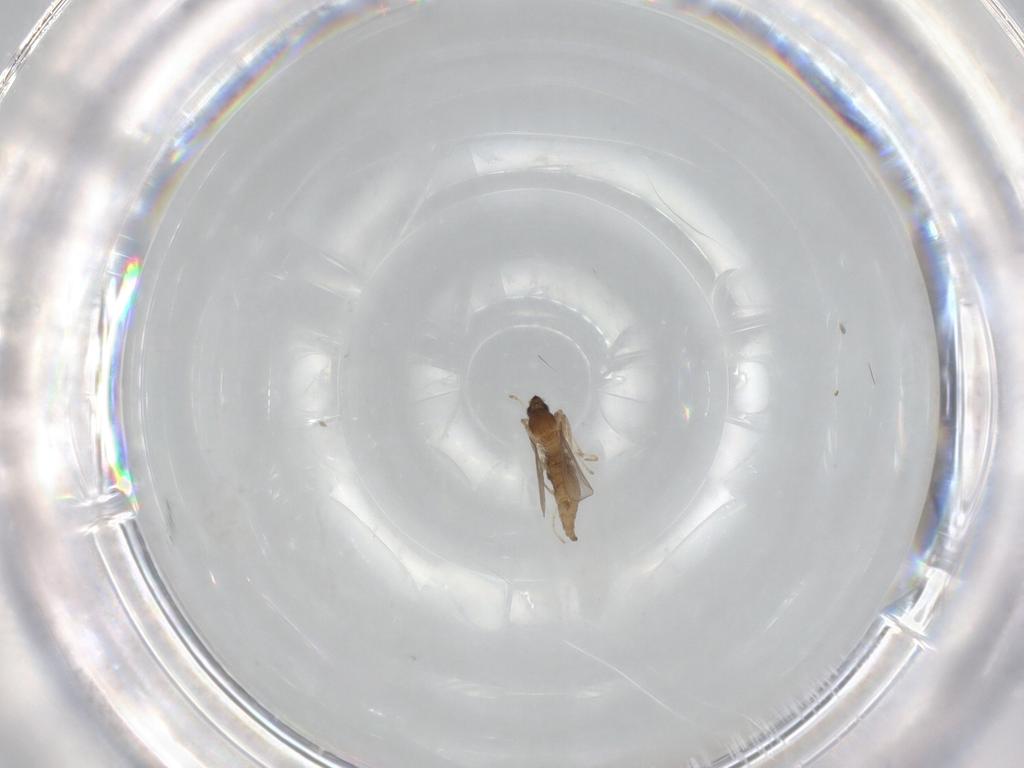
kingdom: Animalia
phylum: Arthropoda
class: Insecta
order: Diptera
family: Cecidomyiidae
